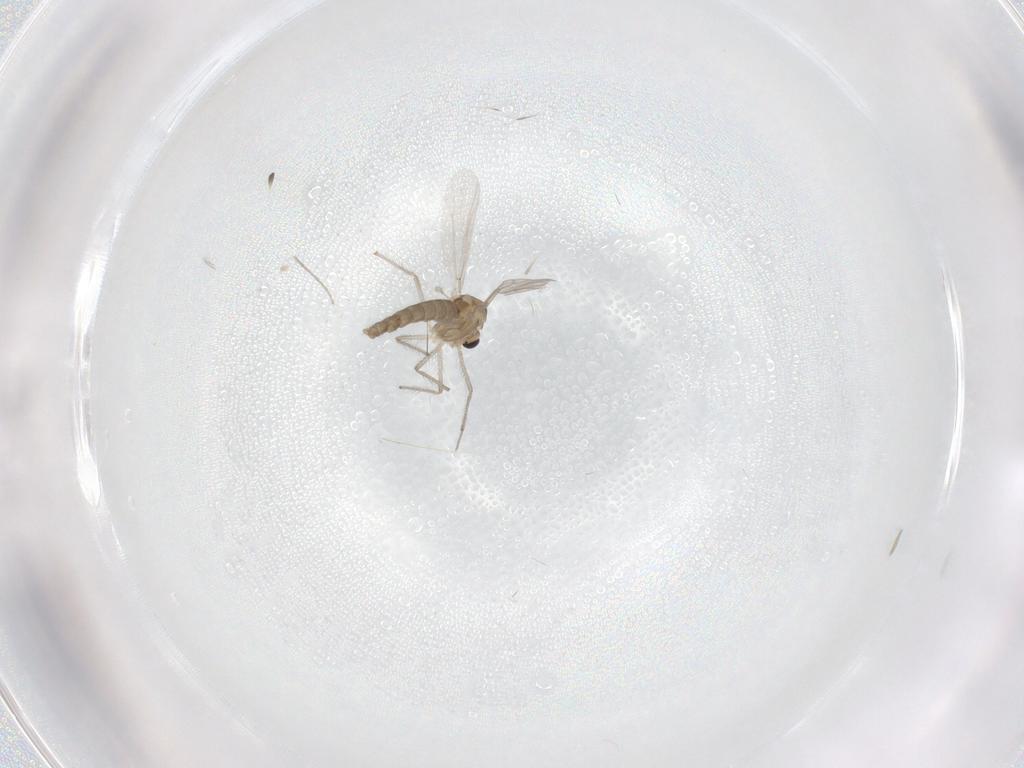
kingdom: Animalia
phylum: Arthropoda
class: Insecta
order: Diptera
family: Chironomidae
